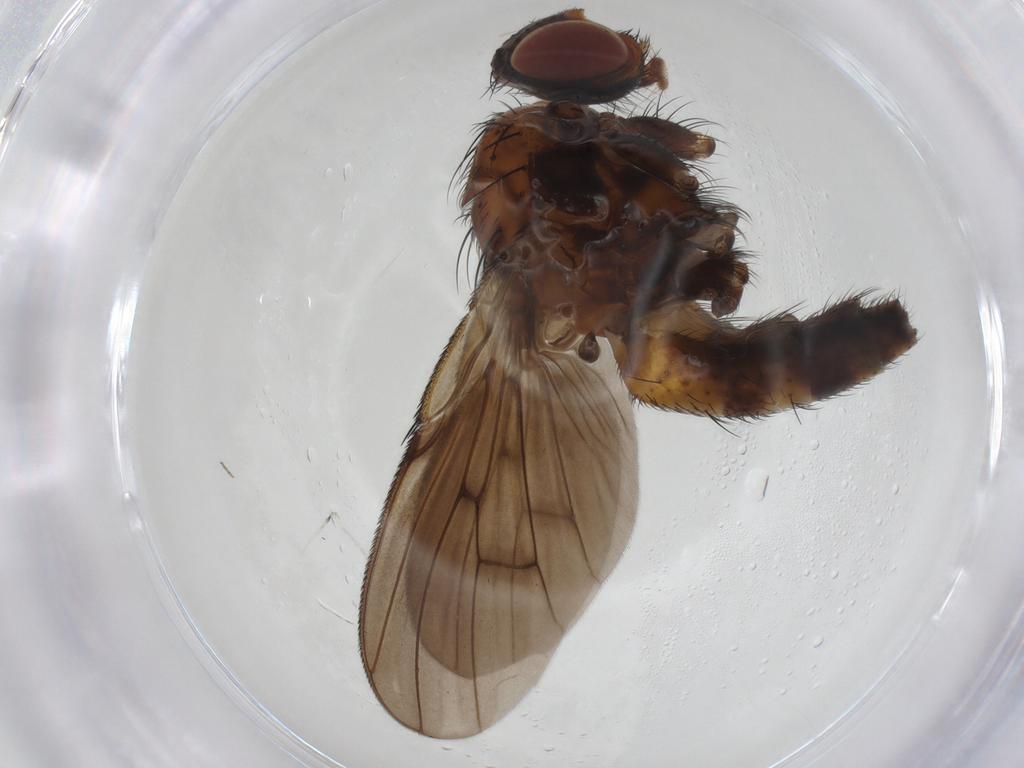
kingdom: Animalia
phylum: Arthropoda
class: Insecta
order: Diptera
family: Muscidae
